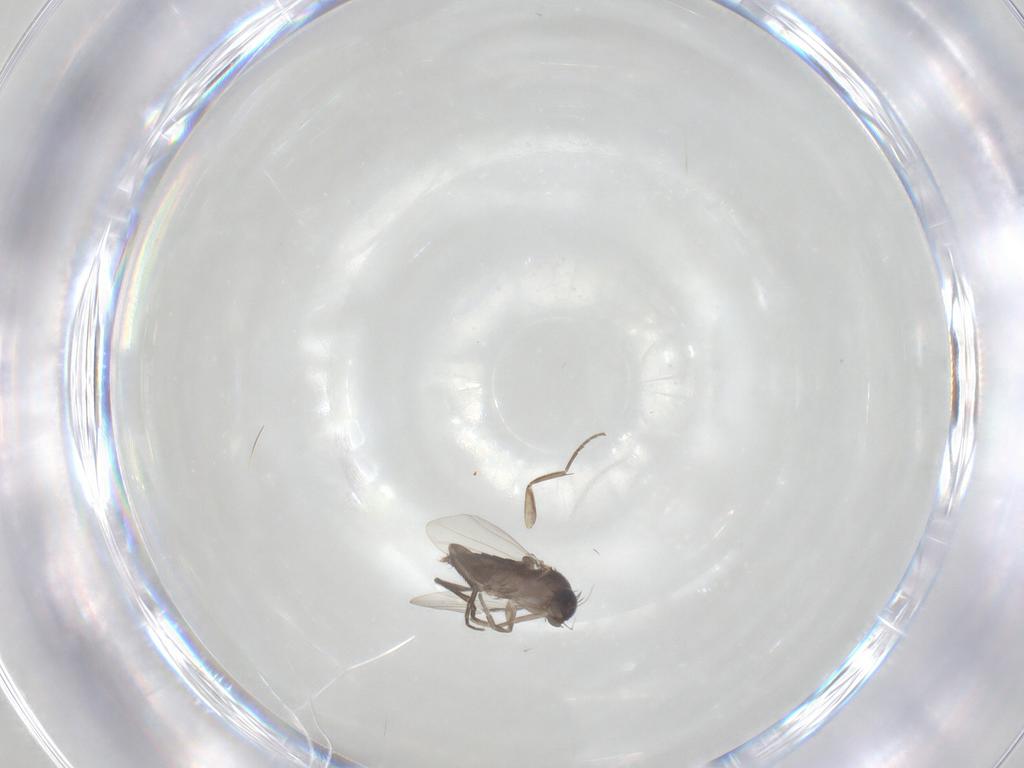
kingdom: Animalia
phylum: Arthropoda
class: Insecta
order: Diptera
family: Phoridae
